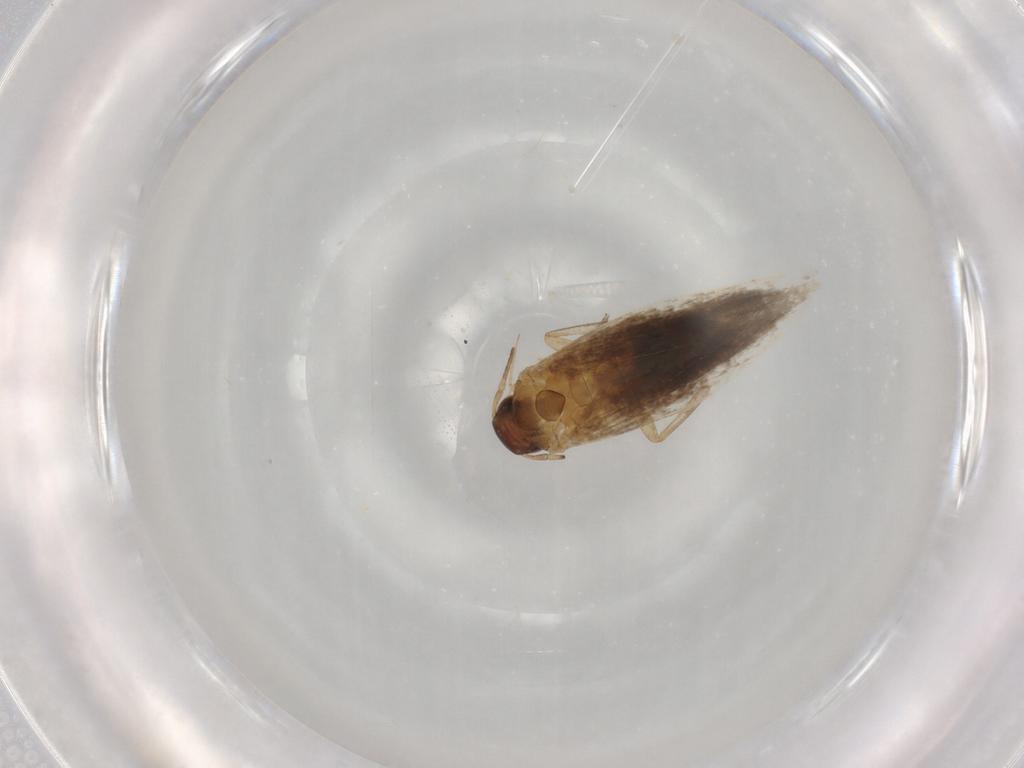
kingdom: Animalia
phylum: Arthropoda
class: Insecta
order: Lepidoptera
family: Gelechiidae
